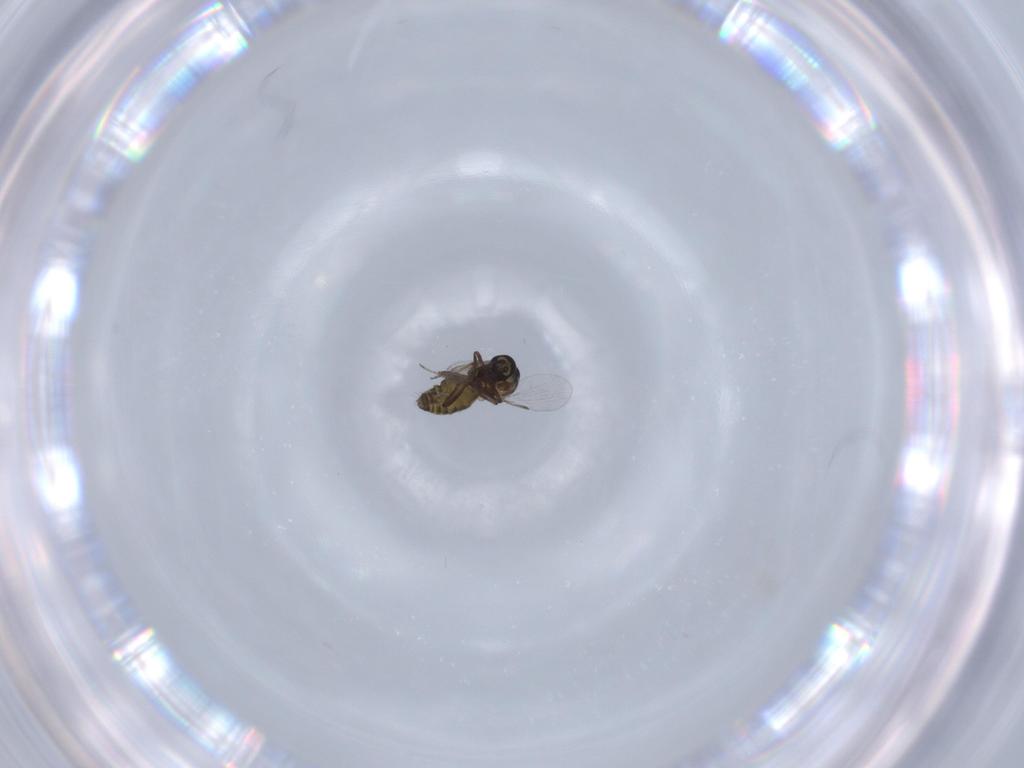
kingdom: Animalia
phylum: Arthropoda
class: Insecta
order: Diptera
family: Ceratopogonidae
